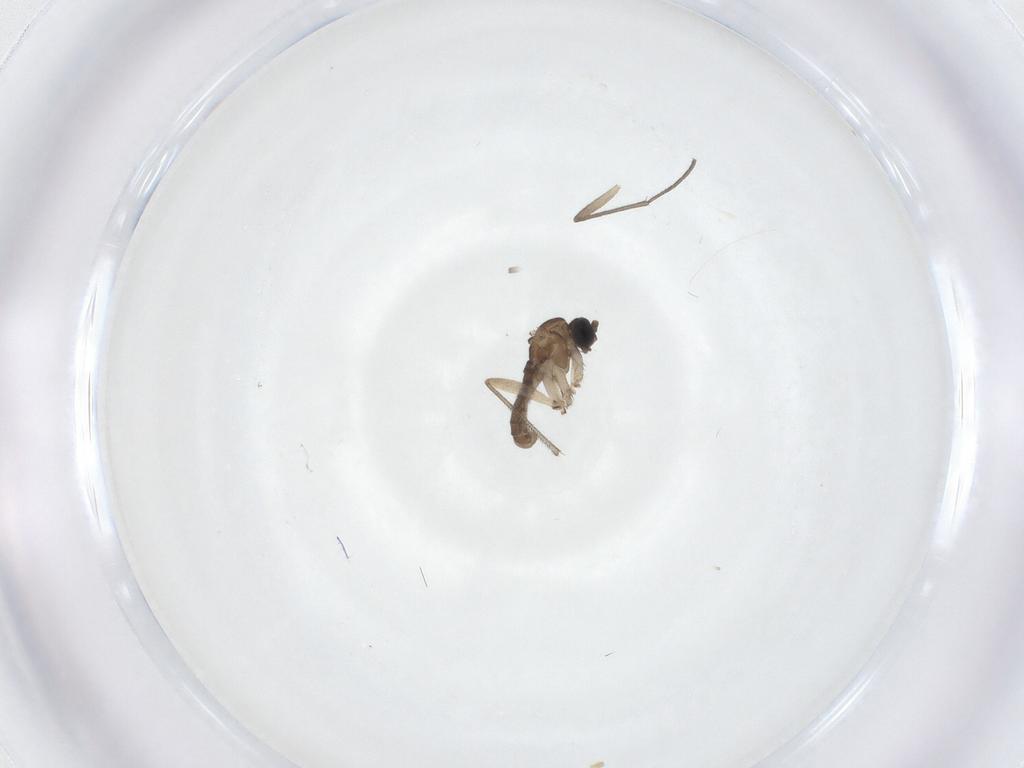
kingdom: Animalia
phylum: Arthropoda
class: Insecta
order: Diptera
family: Sciaridae
